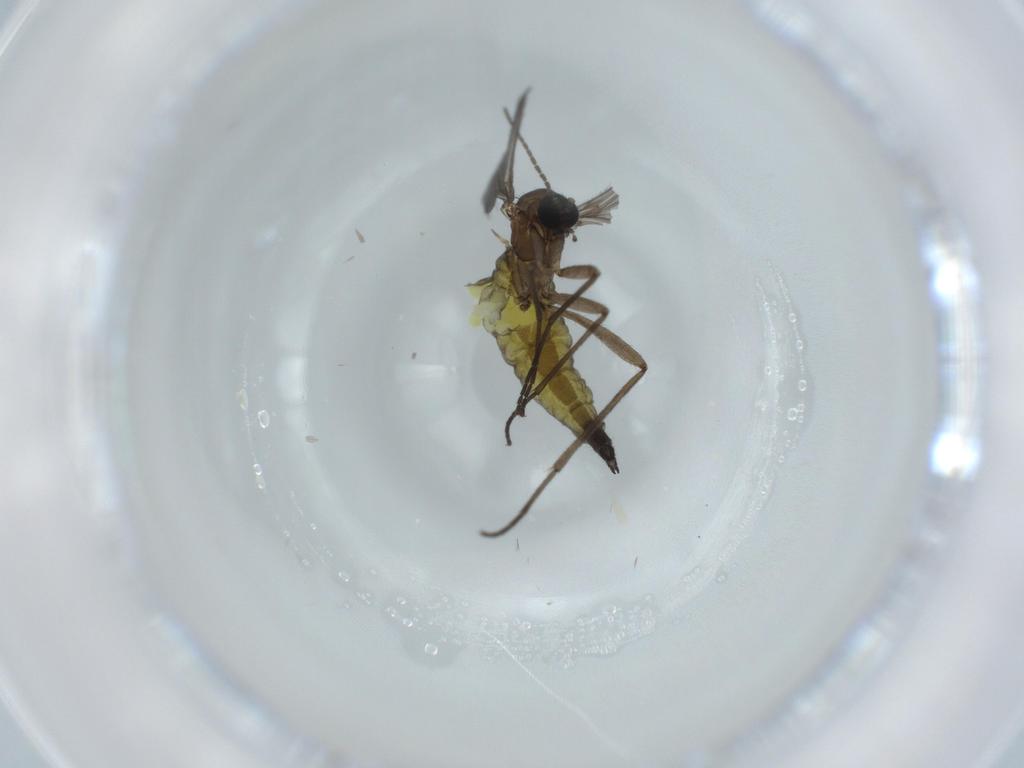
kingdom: Animalia
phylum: Arthropoda
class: Insecta
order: Diptera
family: Sciaridae
